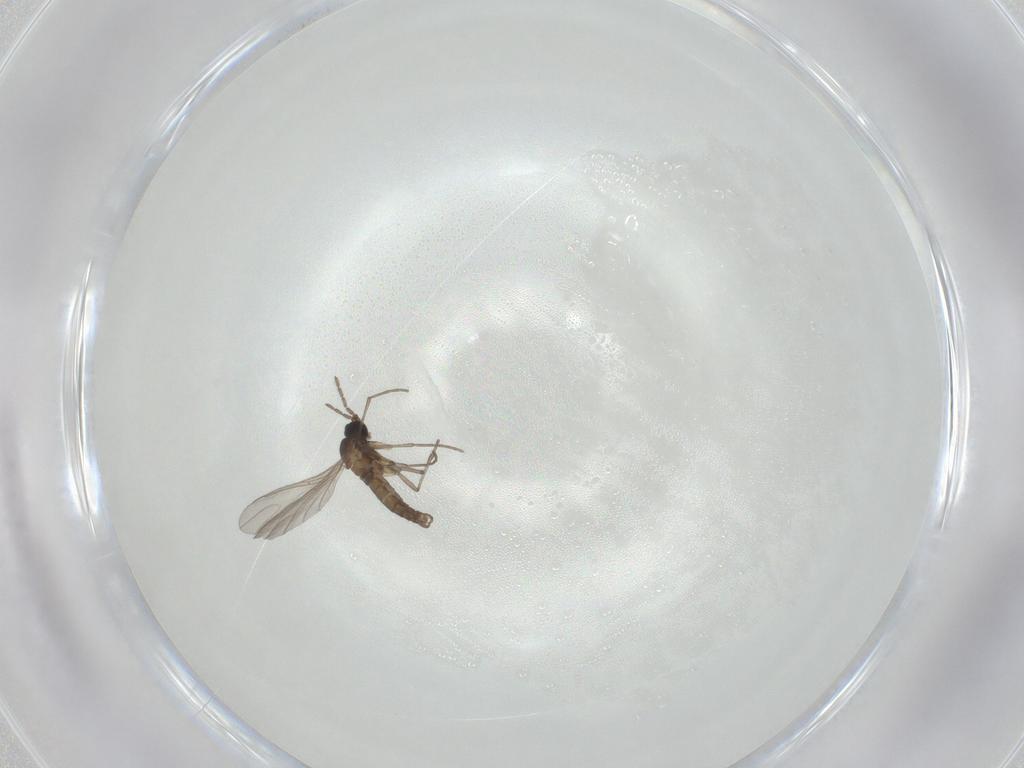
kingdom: Animalia
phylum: Arthropoda
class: Insecta
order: Diptera
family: Sciaridae
